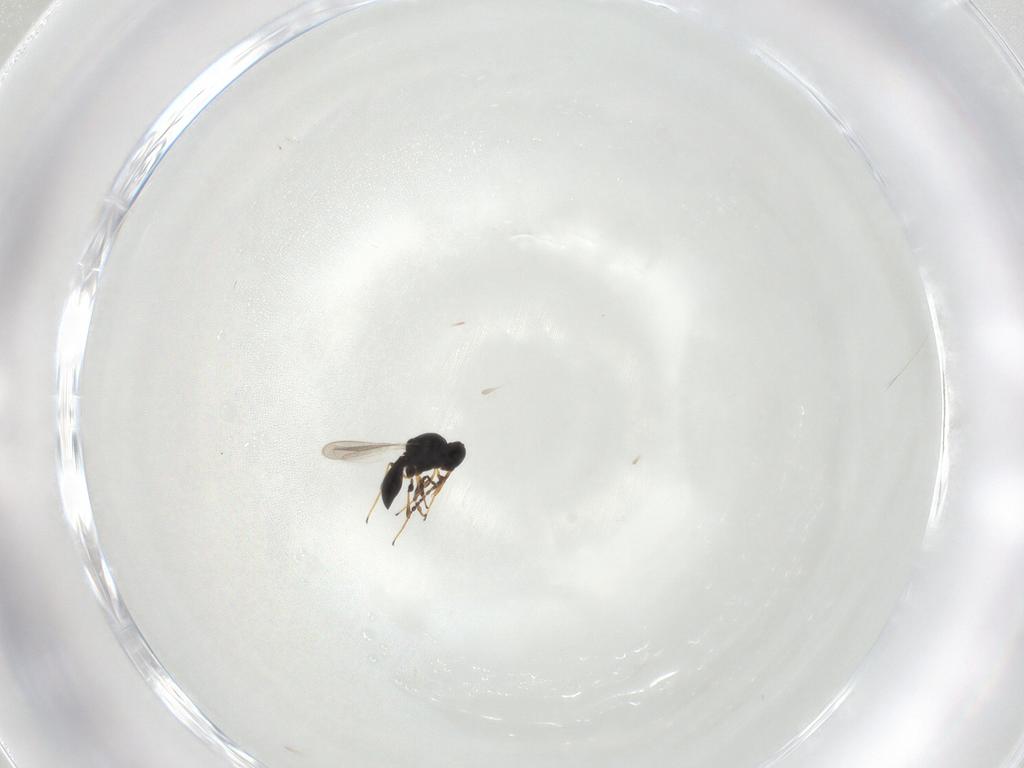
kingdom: Animalia
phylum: Arthropoda
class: Insecta
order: Hymenoptera
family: Platygastridae
